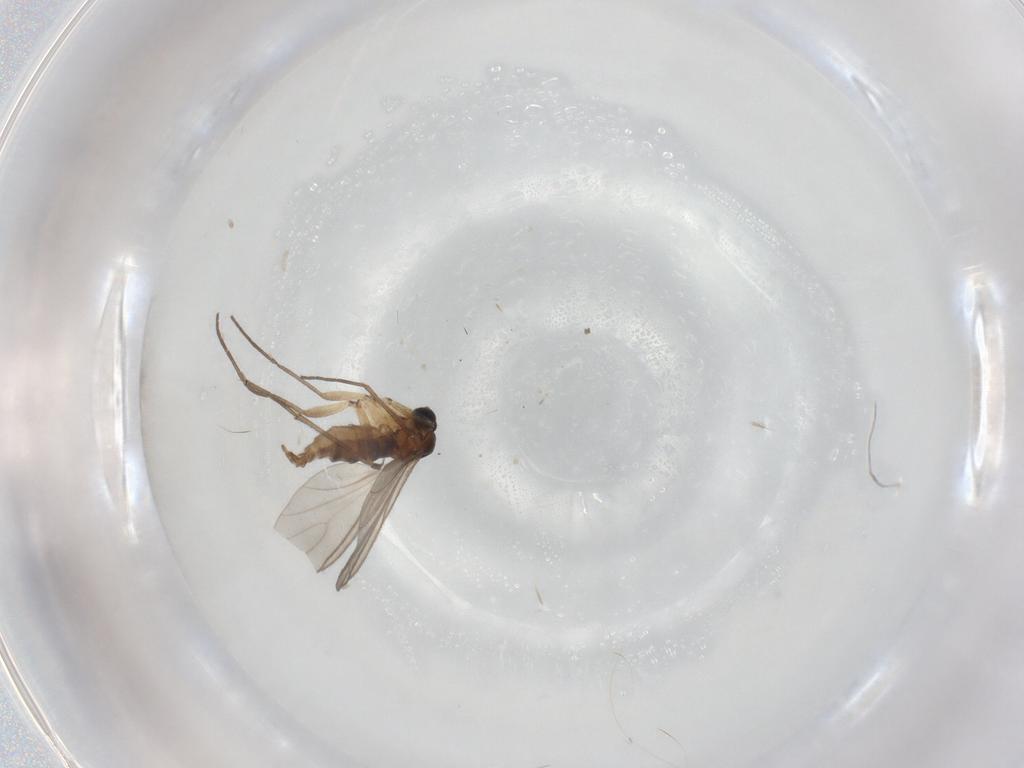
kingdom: Animalia
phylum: Arthropoda
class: Insecta
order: Diptera
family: Sciaridae
